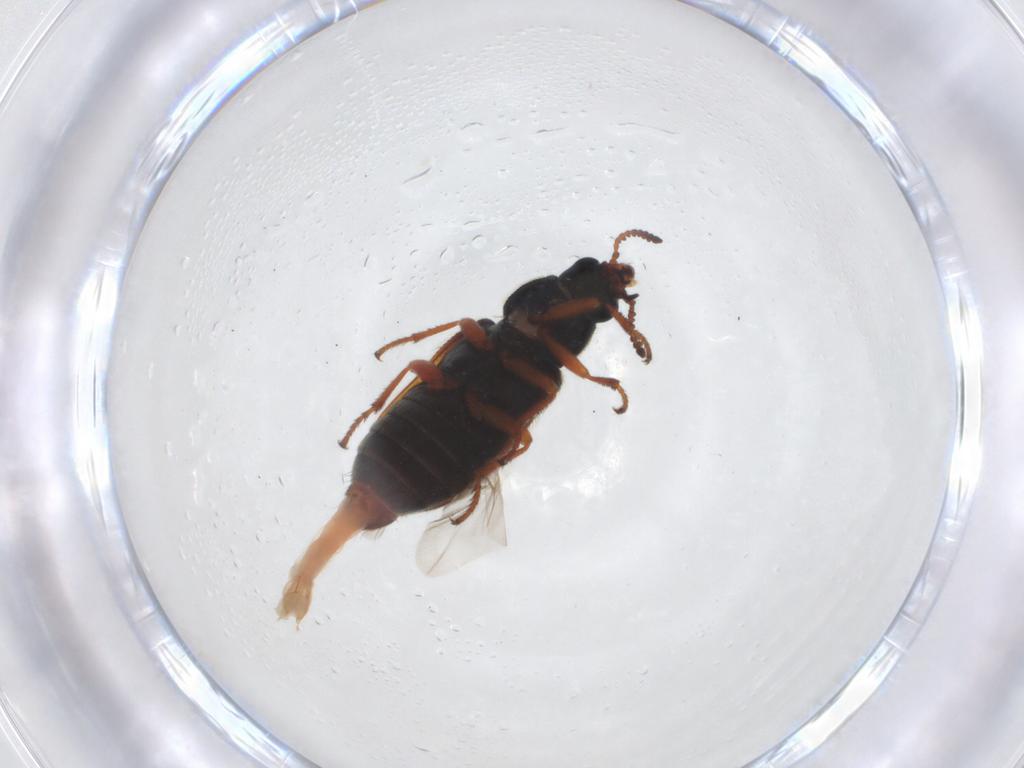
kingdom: Animalia
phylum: Arthropoda
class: Insecta
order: Coleoptera
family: Melyridae
